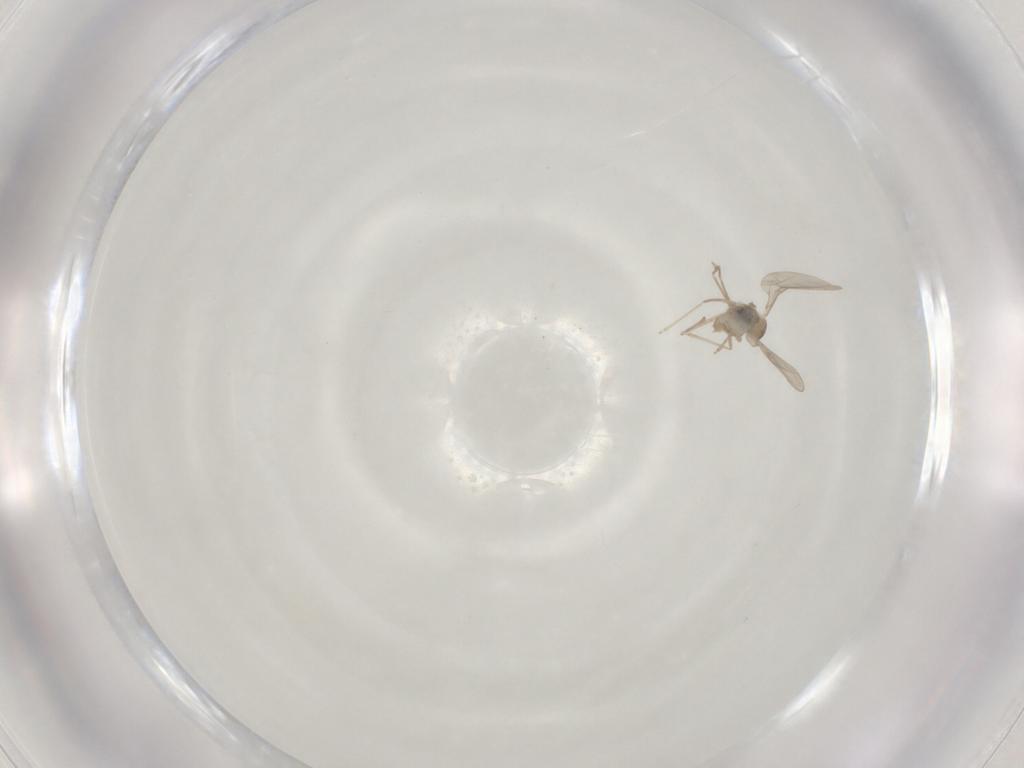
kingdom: Animalia
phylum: Arthropoda
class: Insecta
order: Diptera
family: Cecidomyiidae
